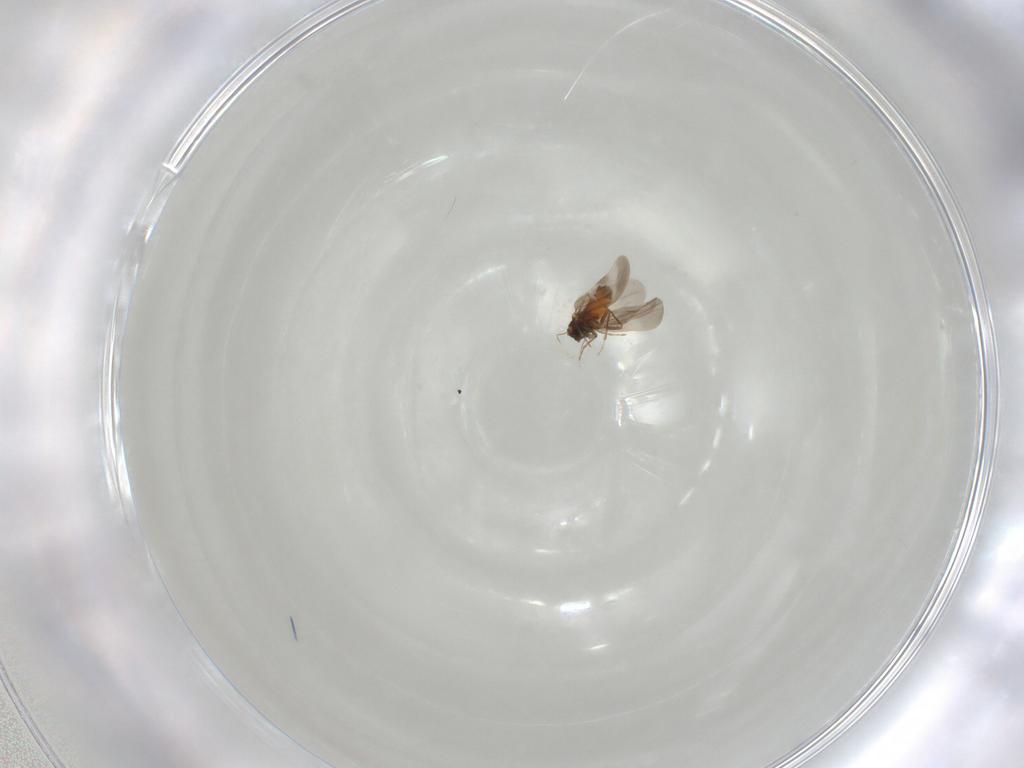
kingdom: Animalia
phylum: Arthropoda
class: Insecta
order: Hemiptera
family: Aleyrodidae
